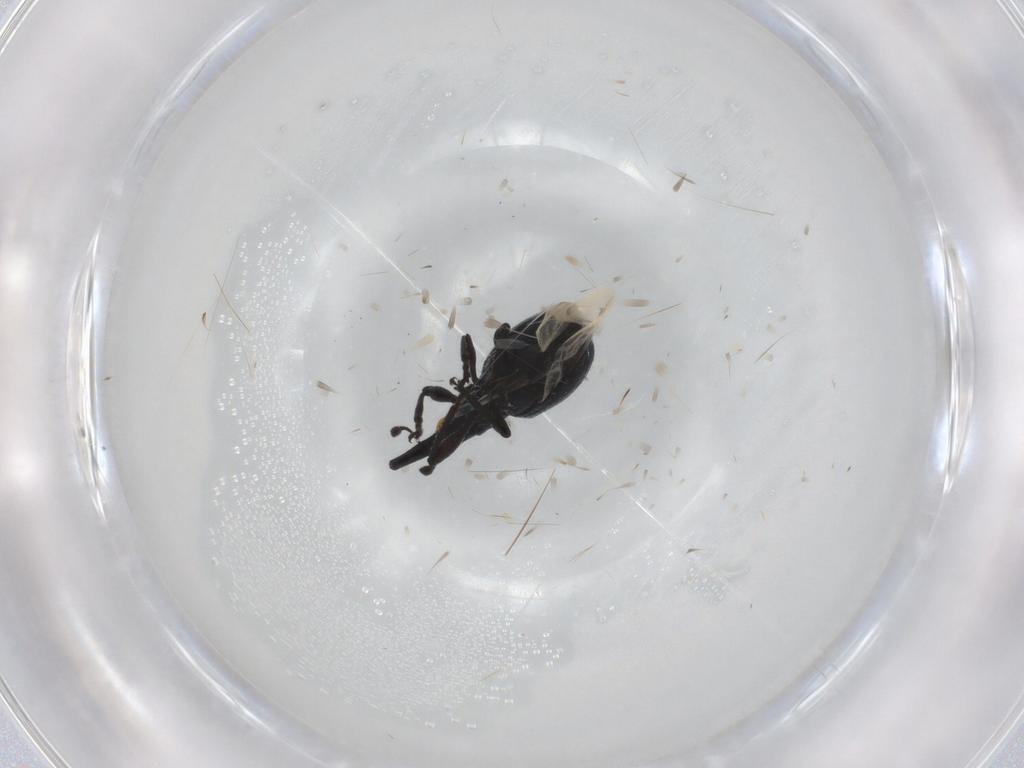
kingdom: Animalia
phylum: Arthropoda
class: Insecta
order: Coleoptera
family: Brentidae
